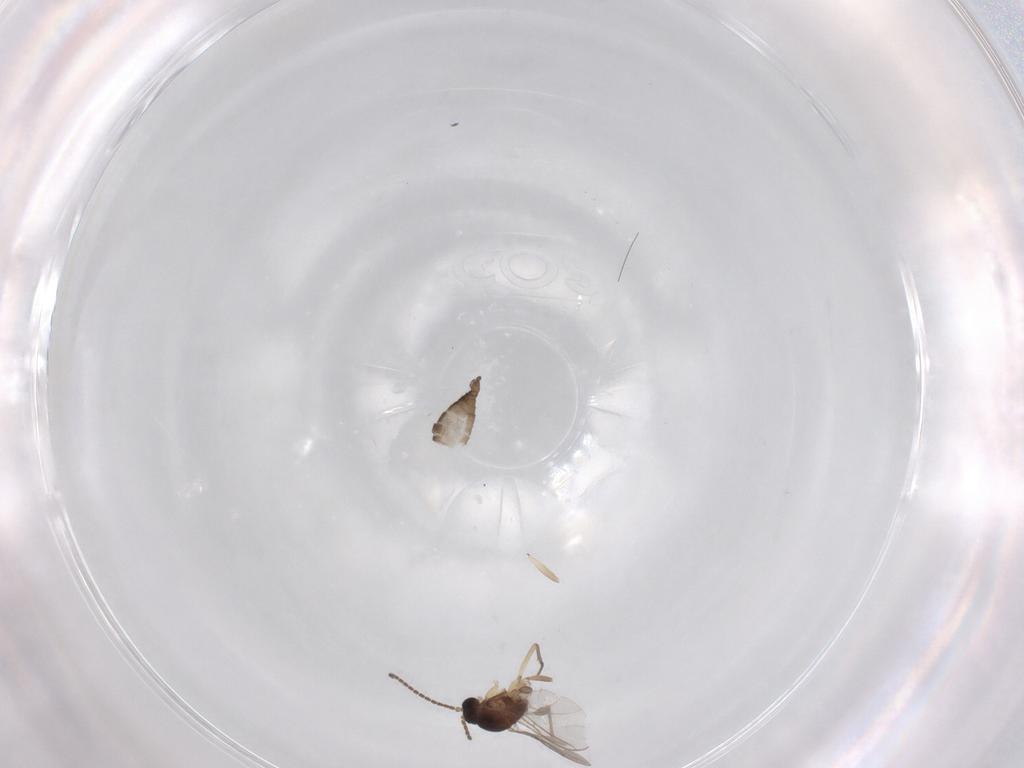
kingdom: Animalia
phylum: Arthropoda
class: Insecta
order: Diptera
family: Sciaridae
